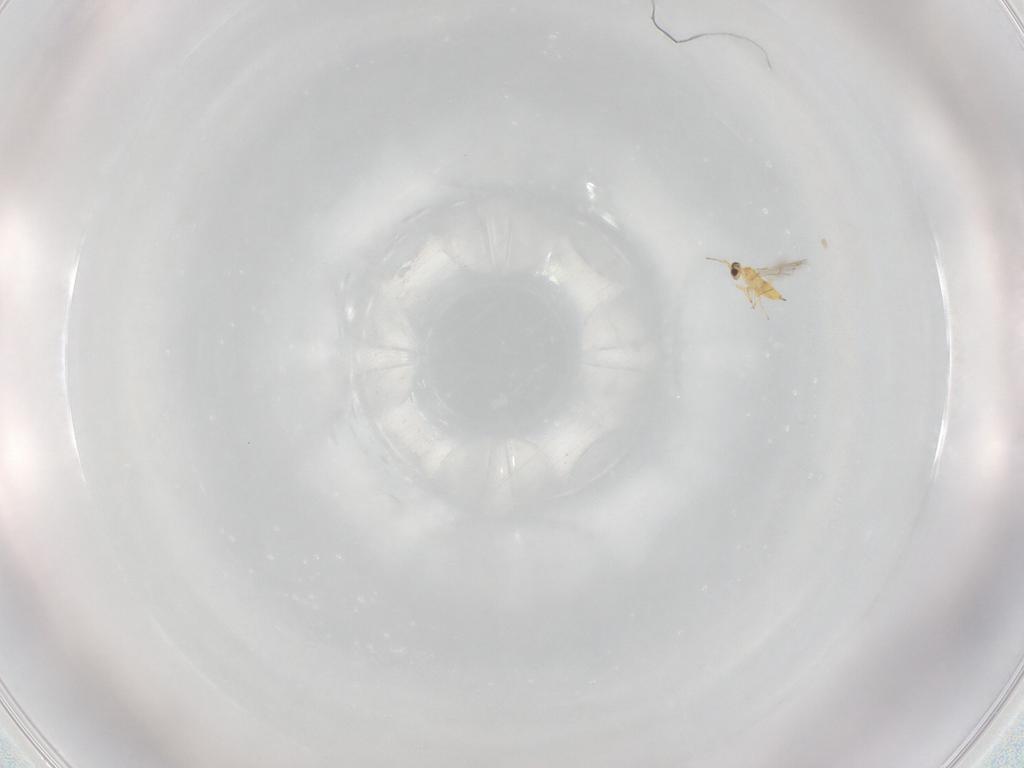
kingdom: Animalia
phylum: Arthropoda
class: Insecta
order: Hymenoptera
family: Mymaridae
